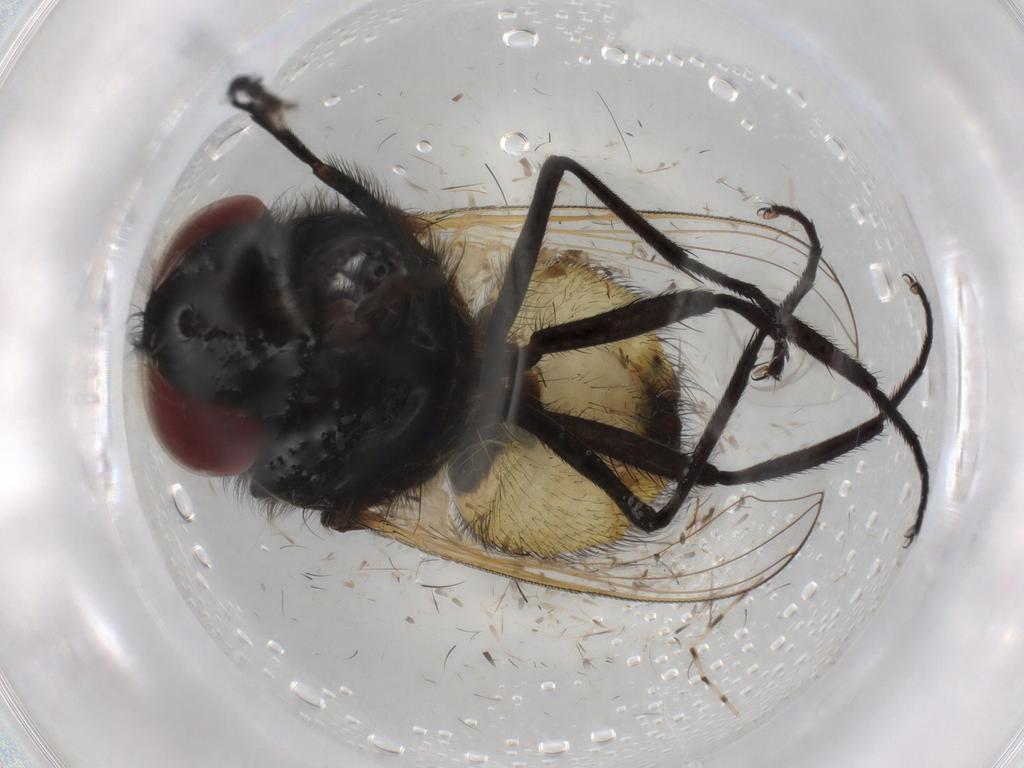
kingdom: Animalia
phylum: Arthropoda
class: Insecta
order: Diptera
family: Muscidae
